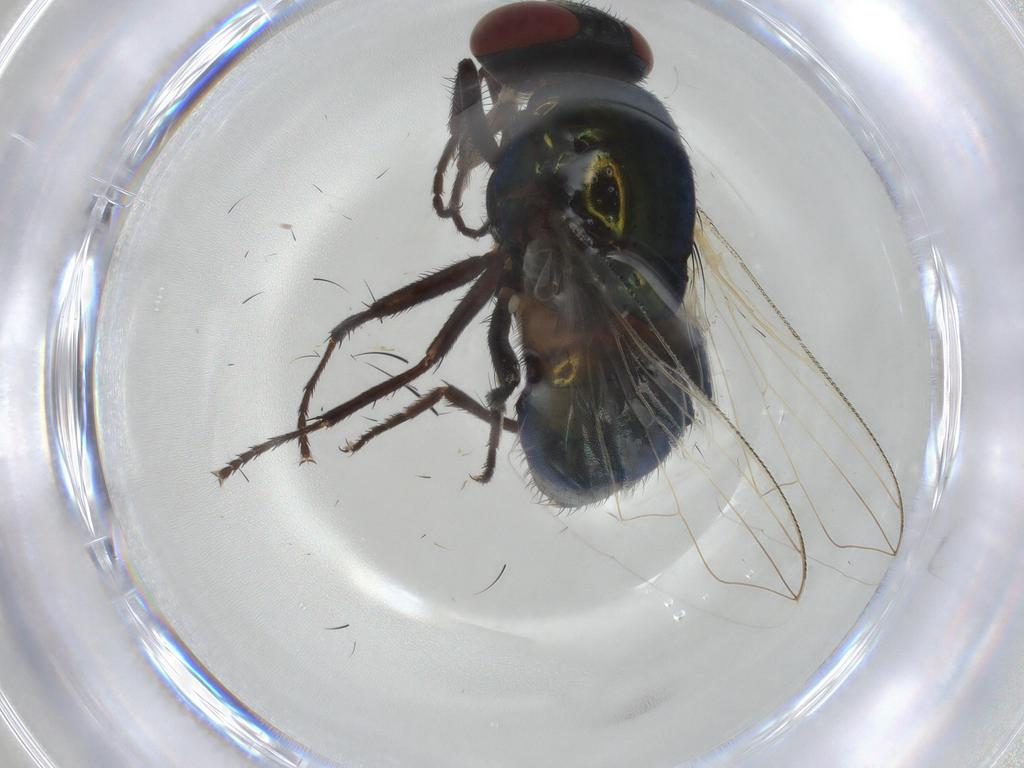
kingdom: Animalia
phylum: Arthropoda
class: Insecta
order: Diptera
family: Muscidae
